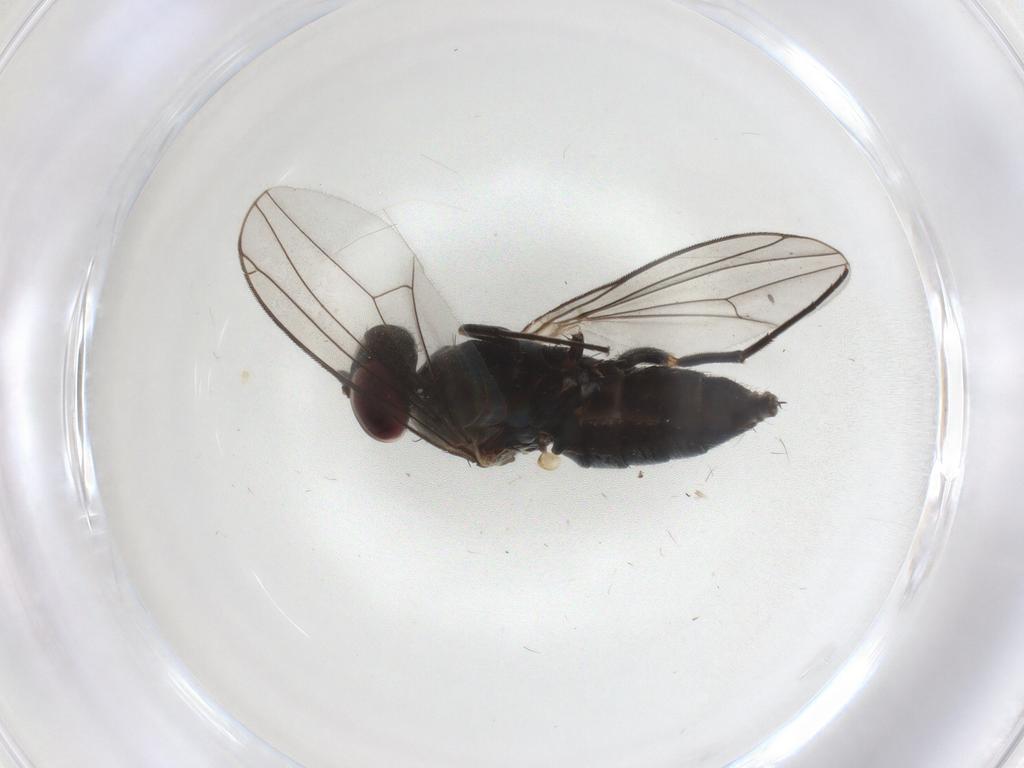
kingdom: Animalia
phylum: Arthropoda
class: Insecta
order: Diptera
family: Dolichopodidae
